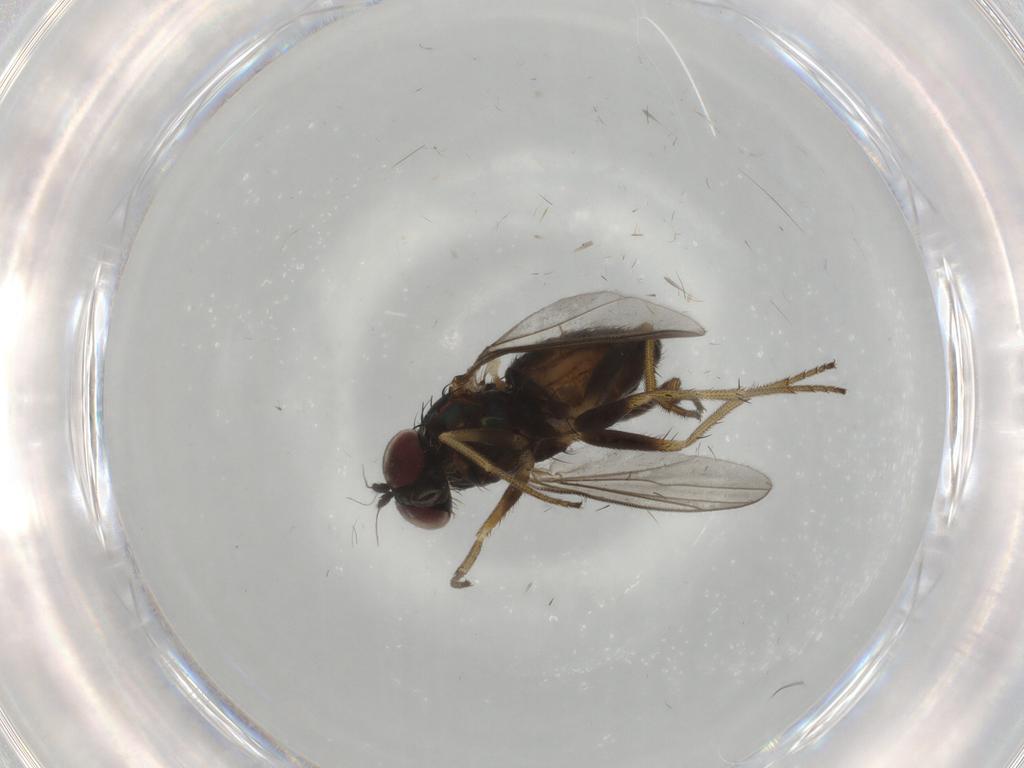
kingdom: Animalia
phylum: Arthropoda
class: Insecta
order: Diptera
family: Sciaridae
